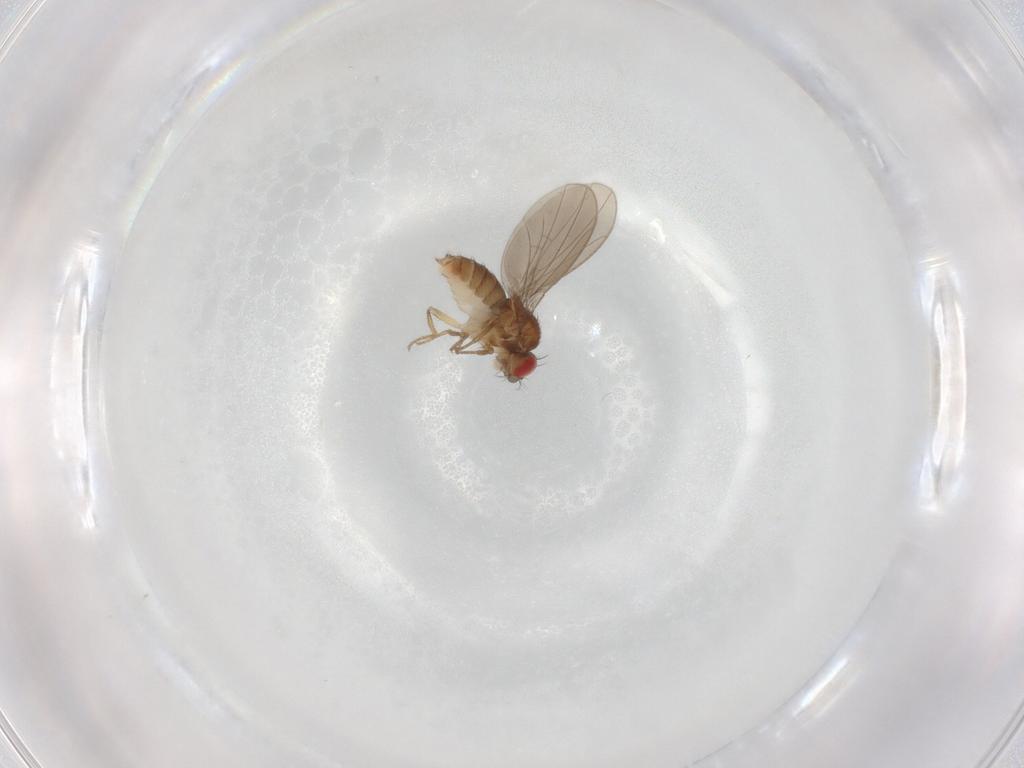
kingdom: Animalia
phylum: Arthropoda
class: Insecta
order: Diptera
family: Drosophilidae
